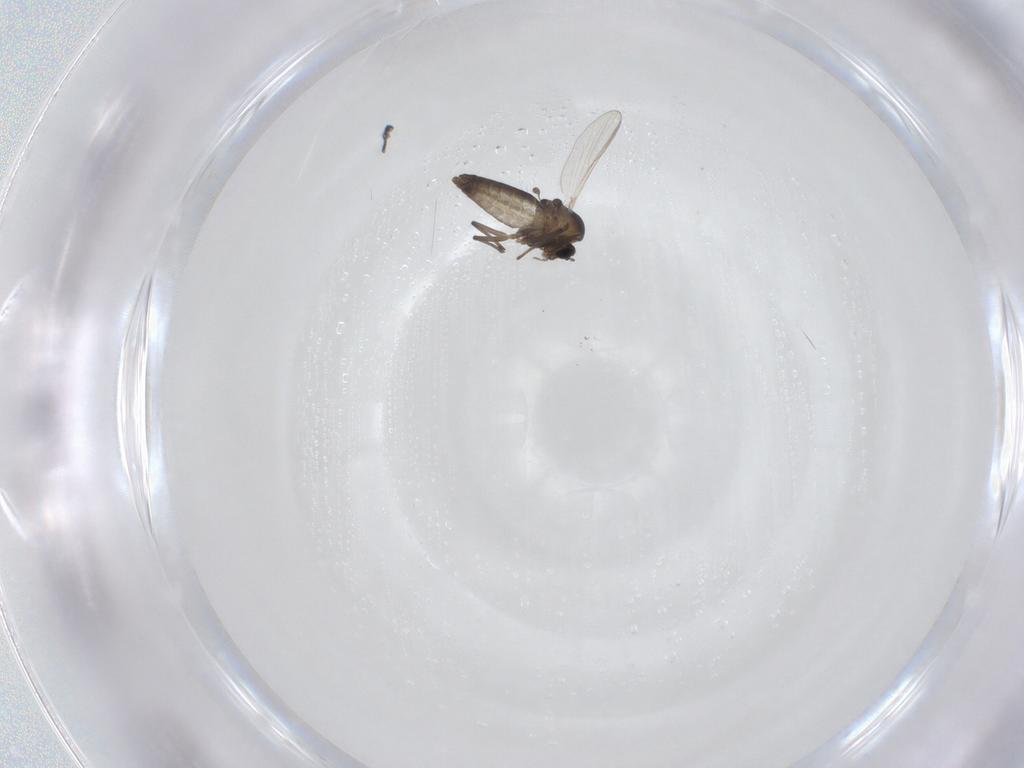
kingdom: Animalia
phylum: Arthropoda
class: Insecta
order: Diptera
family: Chironomidae
